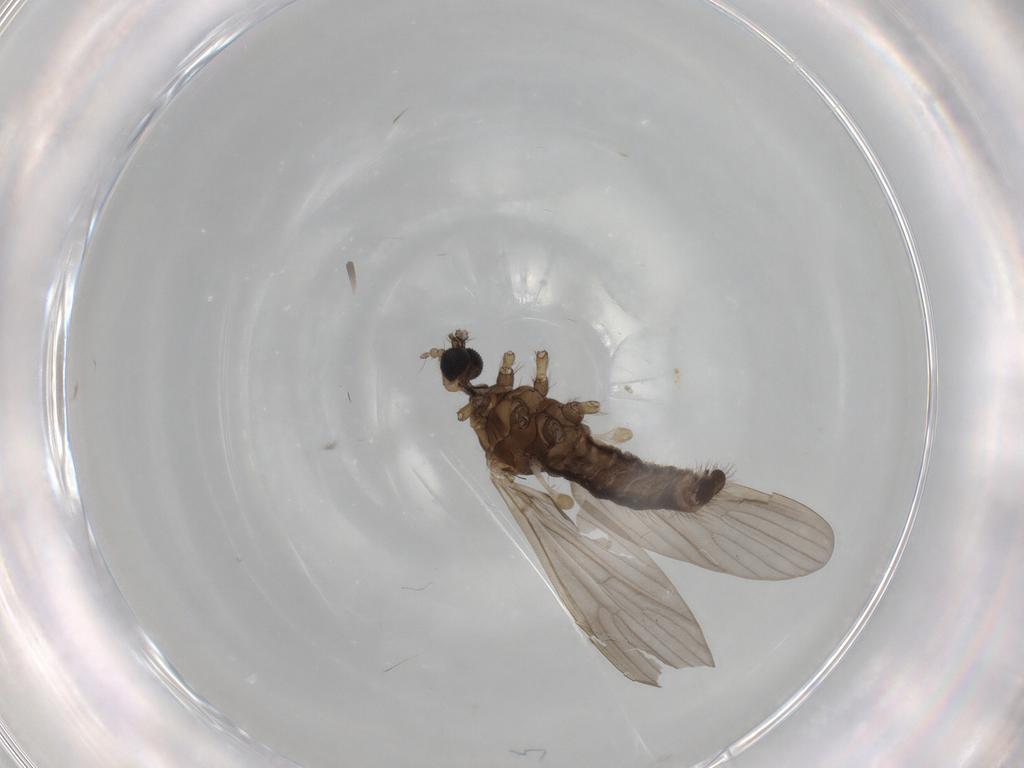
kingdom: Animalia
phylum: Arthropoda
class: Insecta
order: Diptera
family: Limoniidae
